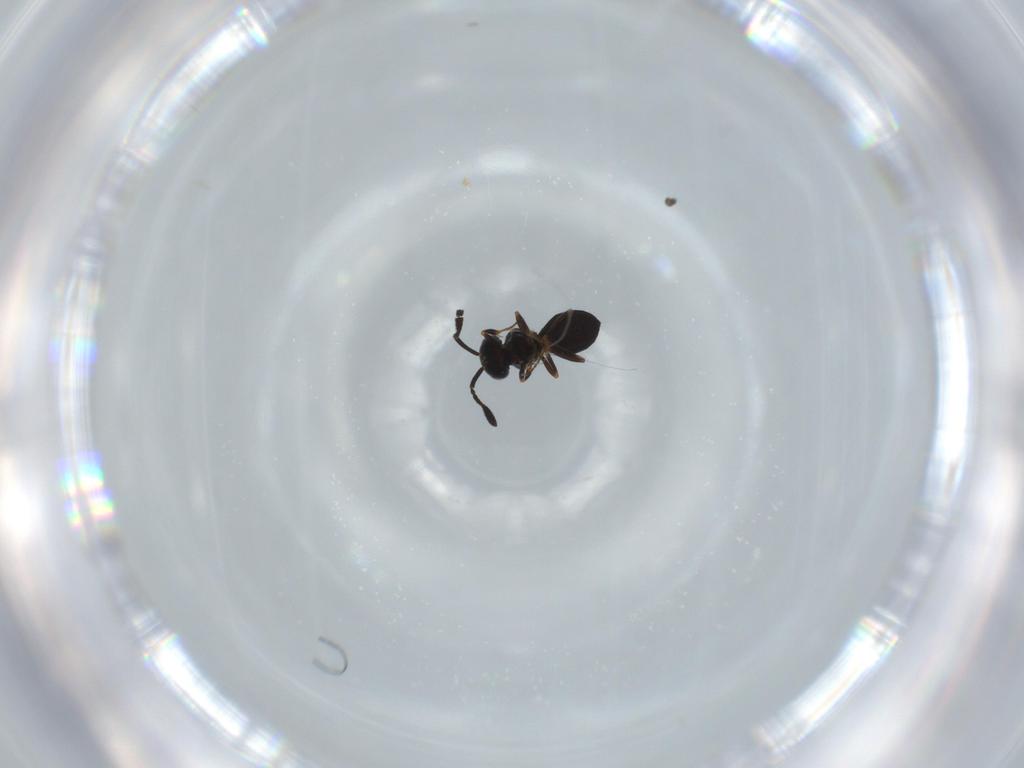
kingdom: Animalia
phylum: Arthropoda
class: Insecta
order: Hymenoptera
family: Scelionidae
